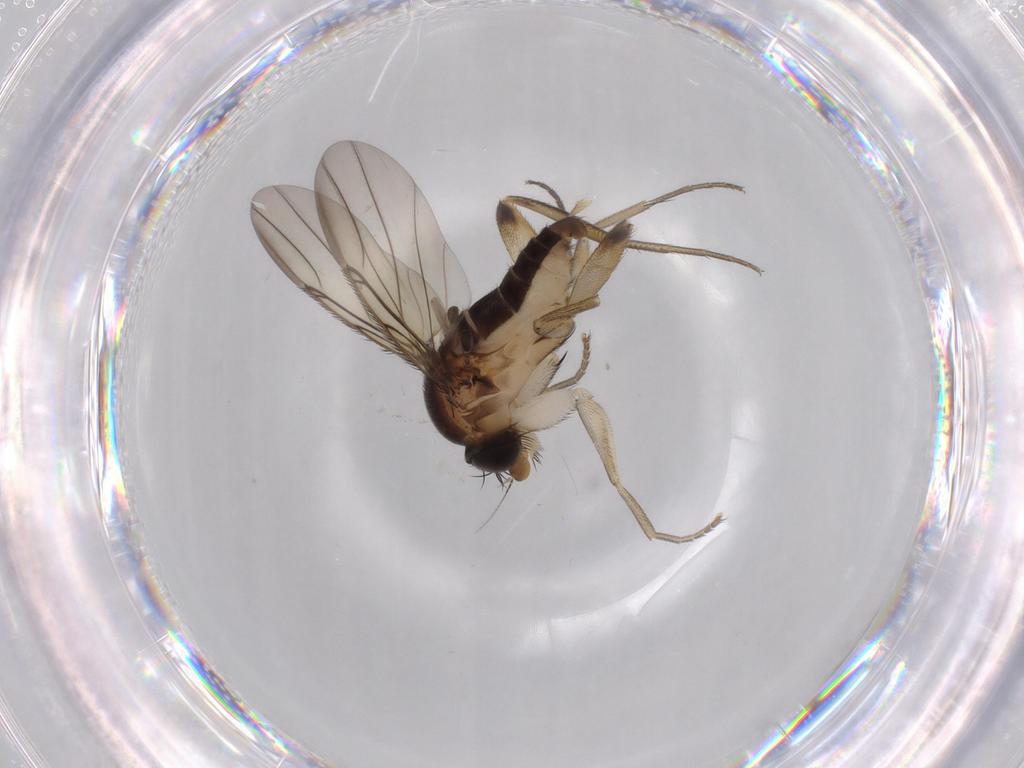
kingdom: Animalia
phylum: Arthropoda
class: Insecta
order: Diptera
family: Phoridae
